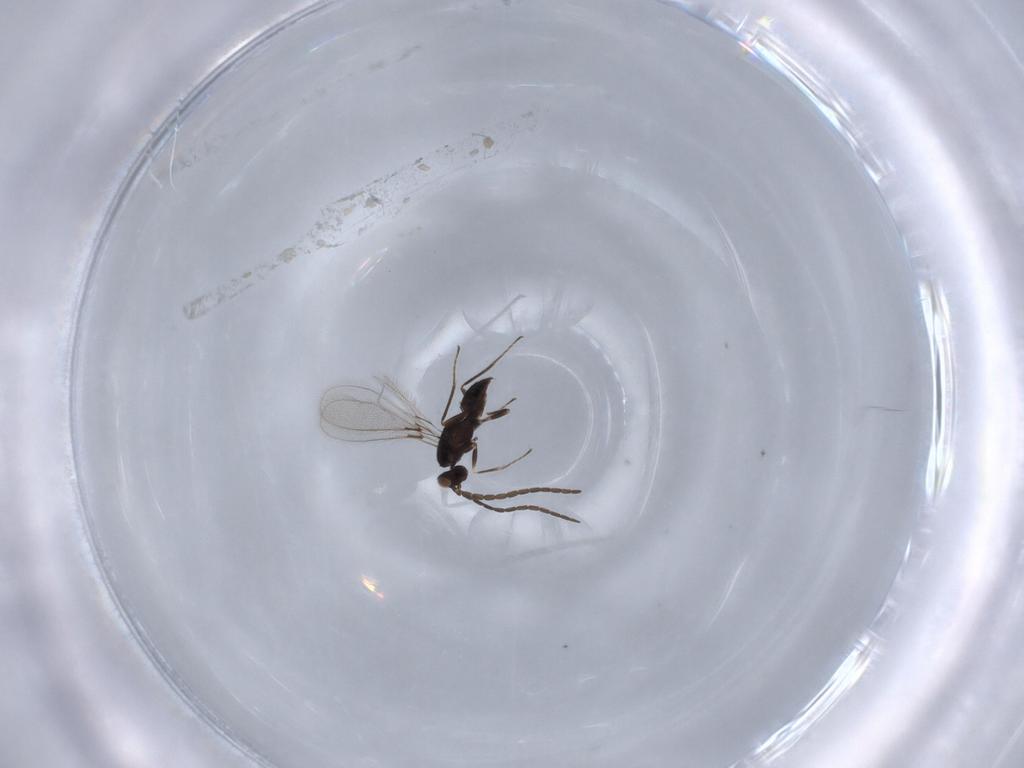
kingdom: Animalia
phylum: Arthropoda
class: Insecta
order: Hymenoptera
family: Mymaridae
